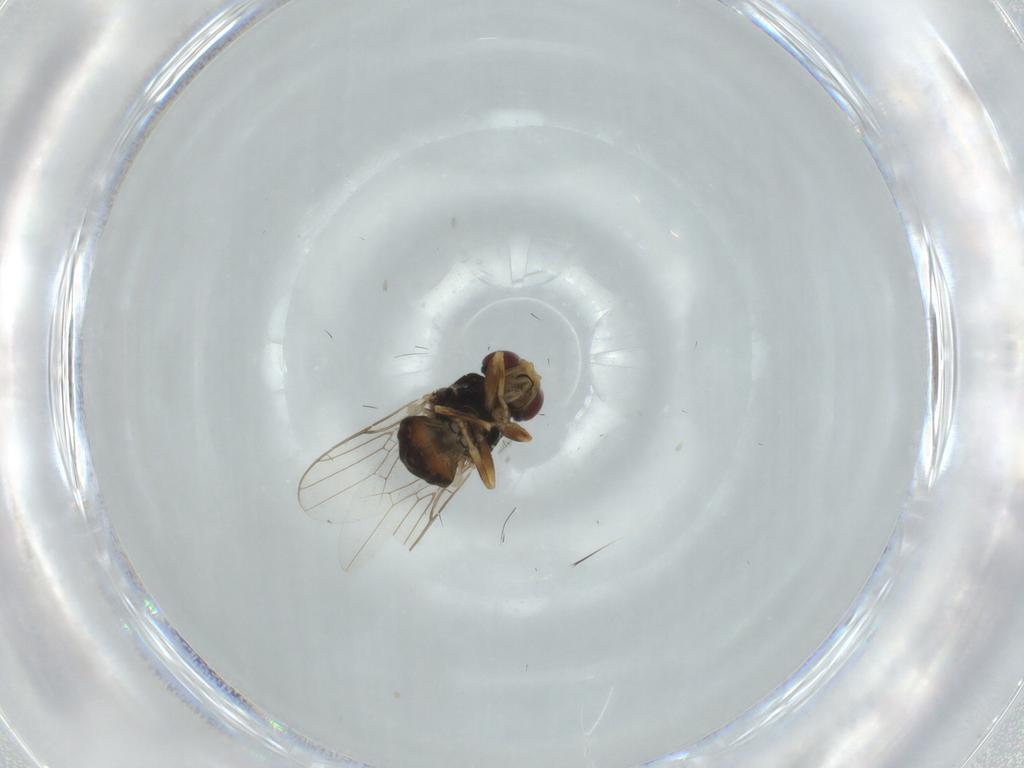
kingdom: Animalia
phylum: Arthropoda
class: Insecta
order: Diptera
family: Chloropidae
